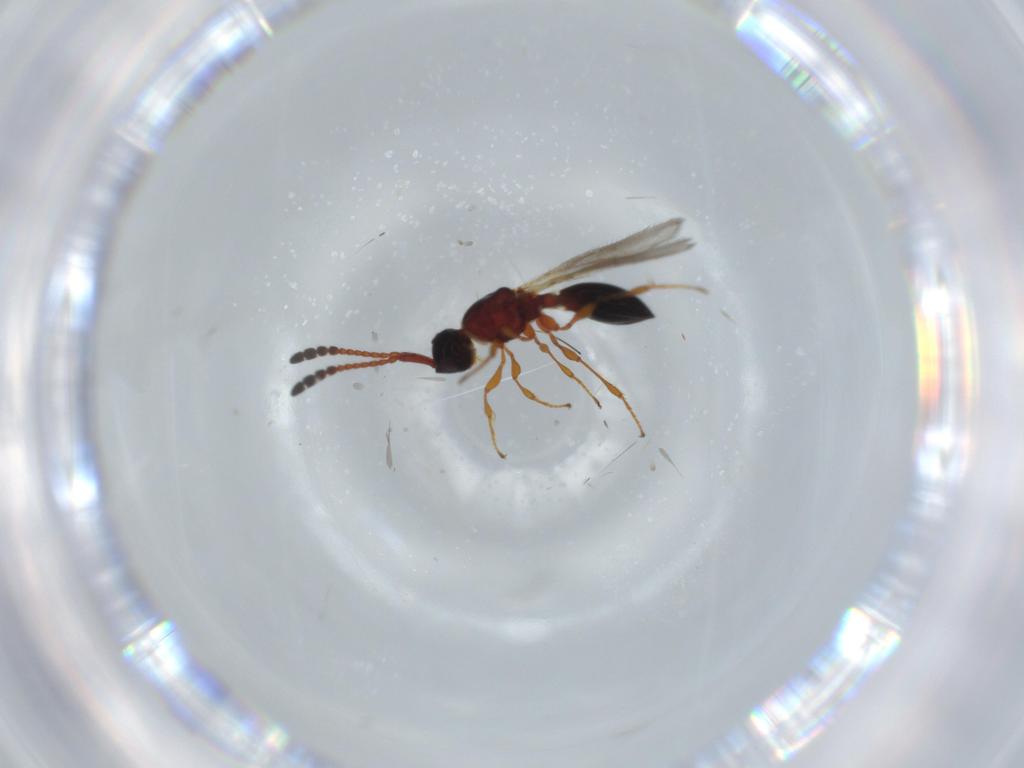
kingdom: Animalia
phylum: Arthropoda
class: Insecta
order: Hymenoptera
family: Diapriidae
